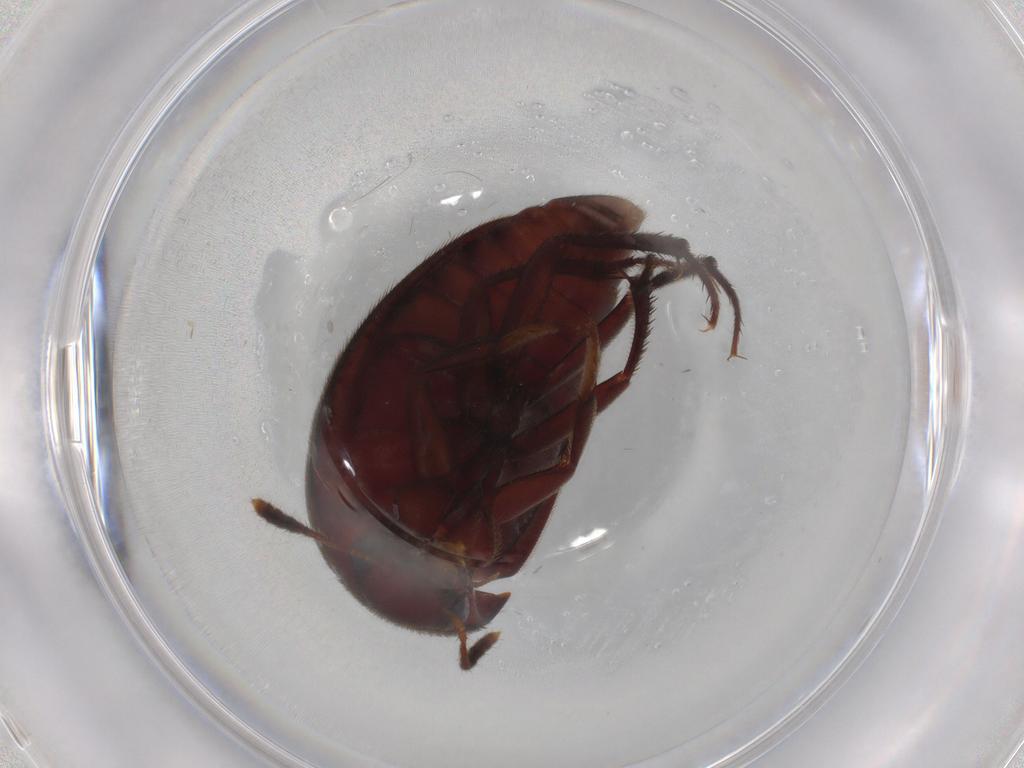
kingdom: Animalia
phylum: Arthropoda
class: Insecta
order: Coleoptera
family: Leiodidae
